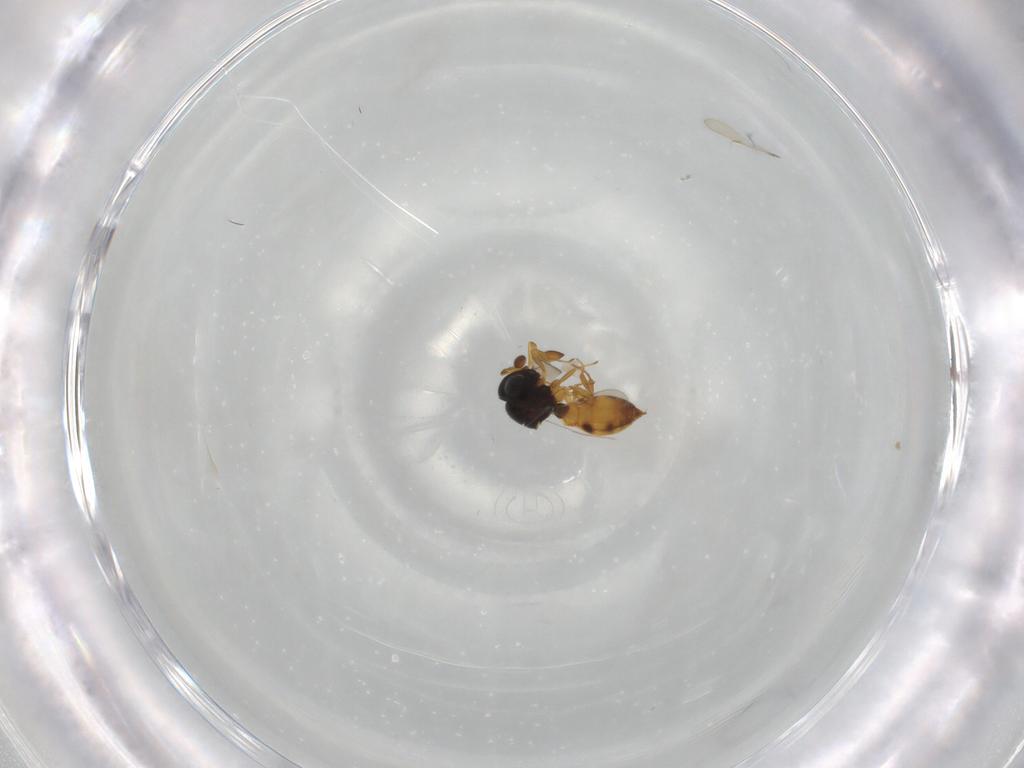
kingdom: Animalia
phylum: Arthropoda
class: Arachnida
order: Araneae
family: Pholcidae
